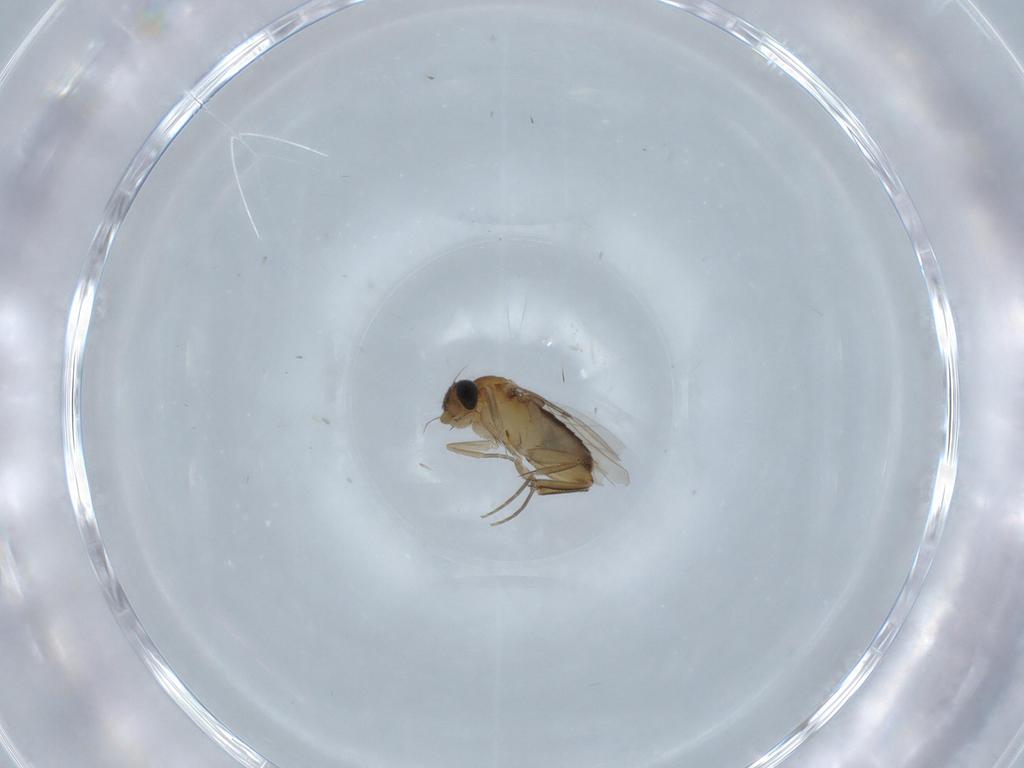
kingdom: Animalia
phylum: Arthropoda
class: Insecta
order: Diptera
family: Phoridae
